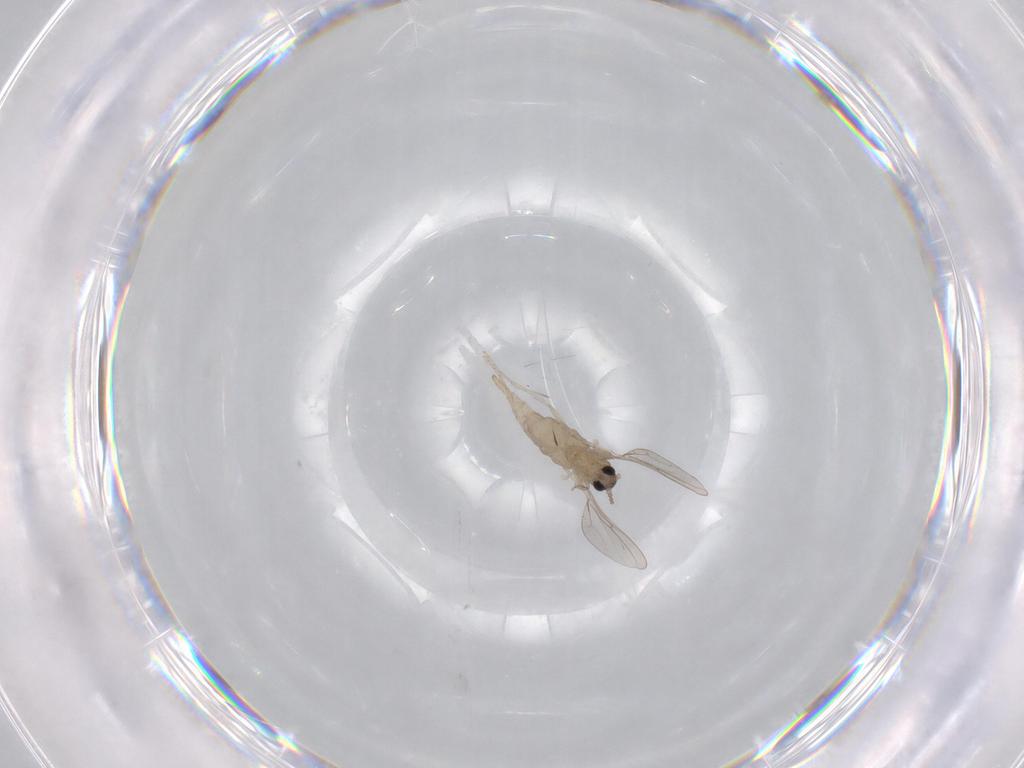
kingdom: Animalia
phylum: Arthropoda
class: Insecta
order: Diptera
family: Cecidomyiidae
